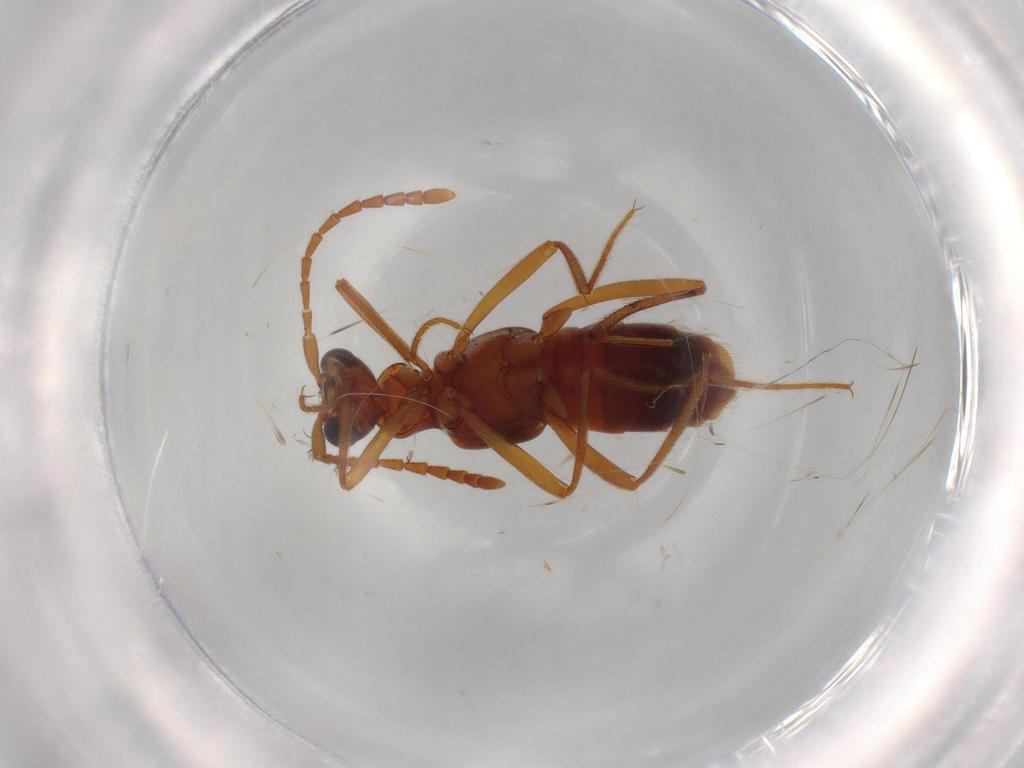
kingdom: Animalia
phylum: Arthropoda
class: Insecta
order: Coleoptera
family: Staphylinidae
